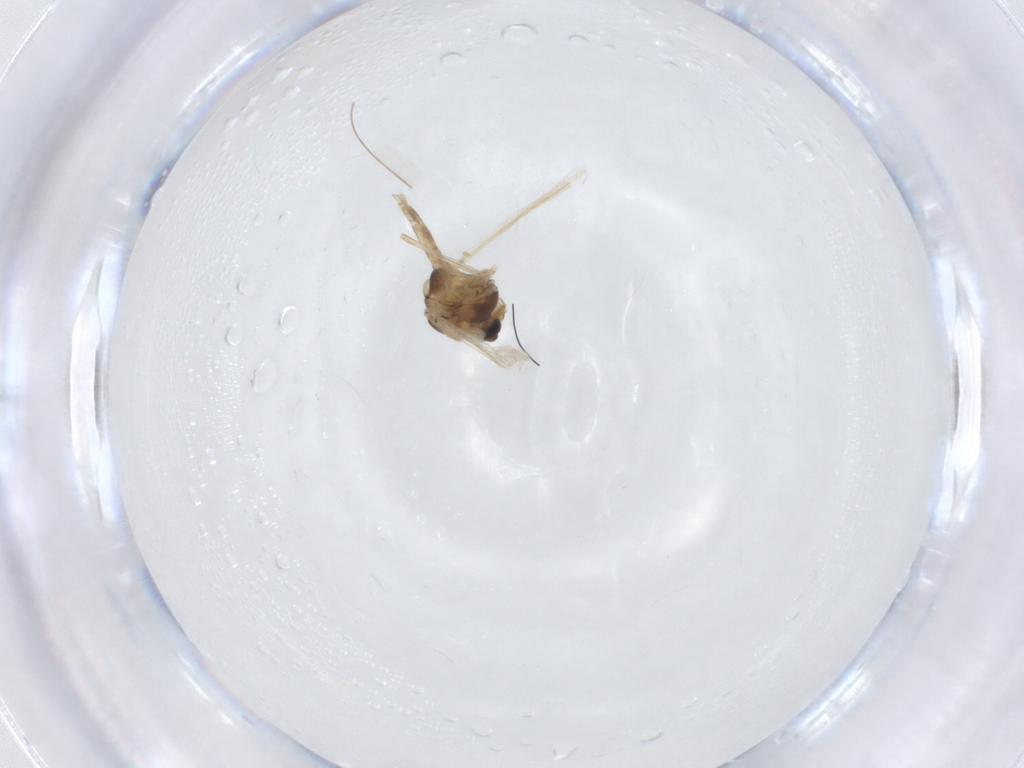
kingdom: Animalia
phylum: Arthropoda
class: Insecta
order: Diptera
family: Chironomidae
